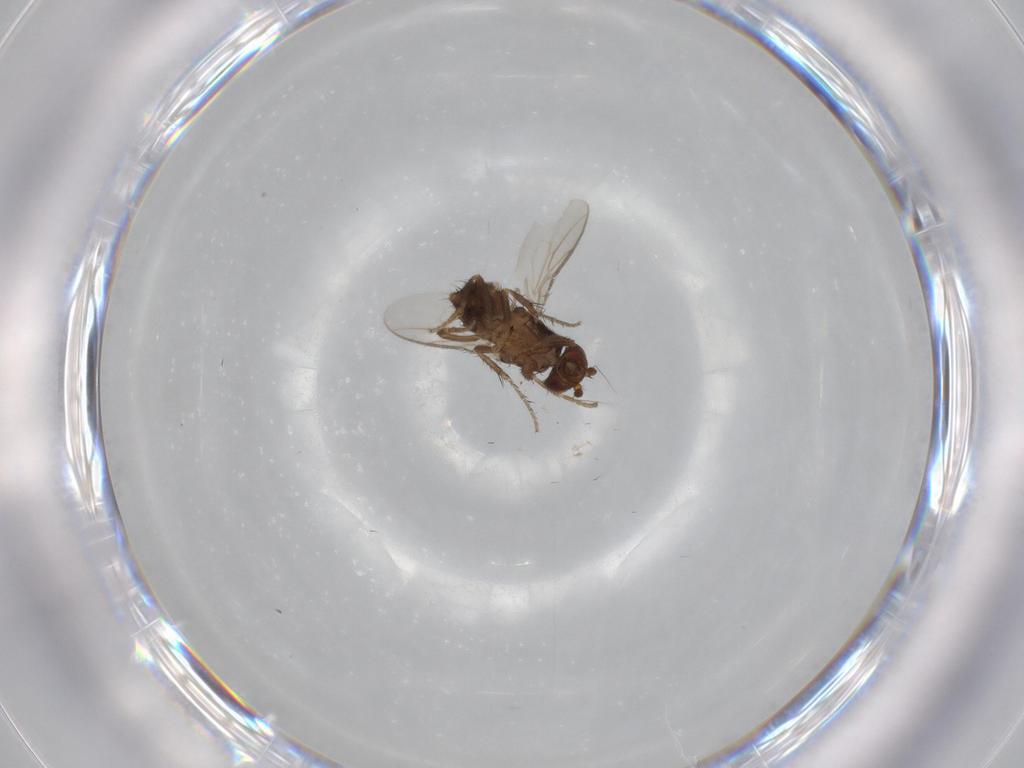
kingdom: Animalia
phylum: Arthropoda
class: Insecta
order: Diptera
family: Sphaeroceridae
